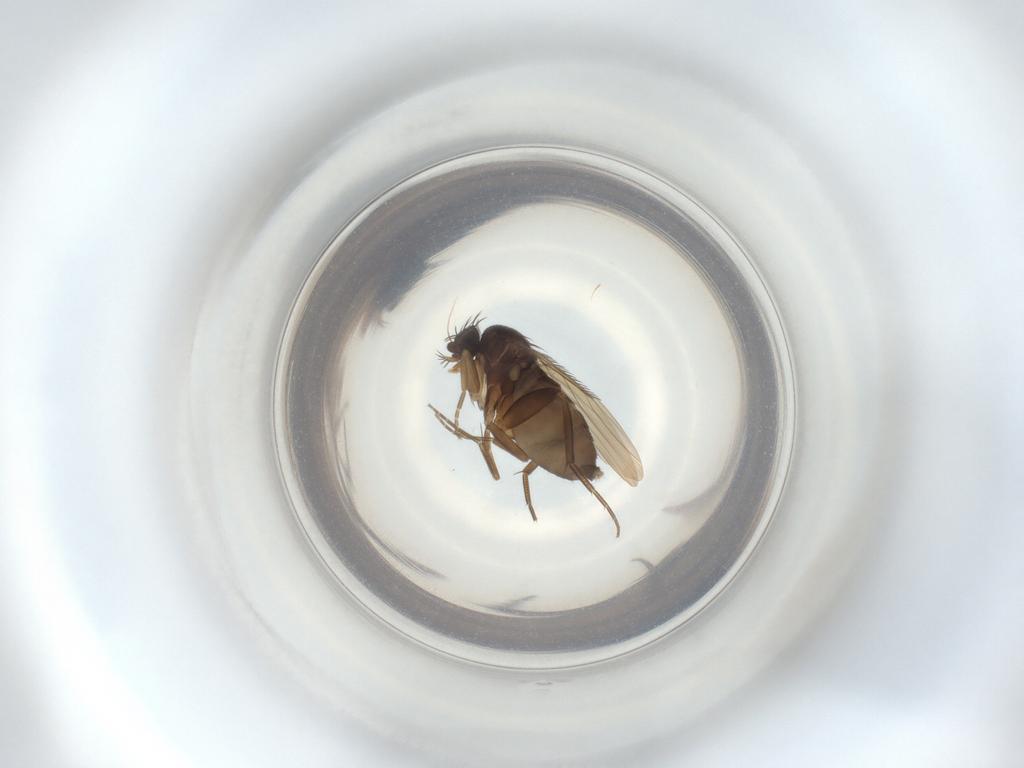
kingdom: Animalia
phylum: Arthropoda
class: Insecta
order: Diptera
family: Phoridae
